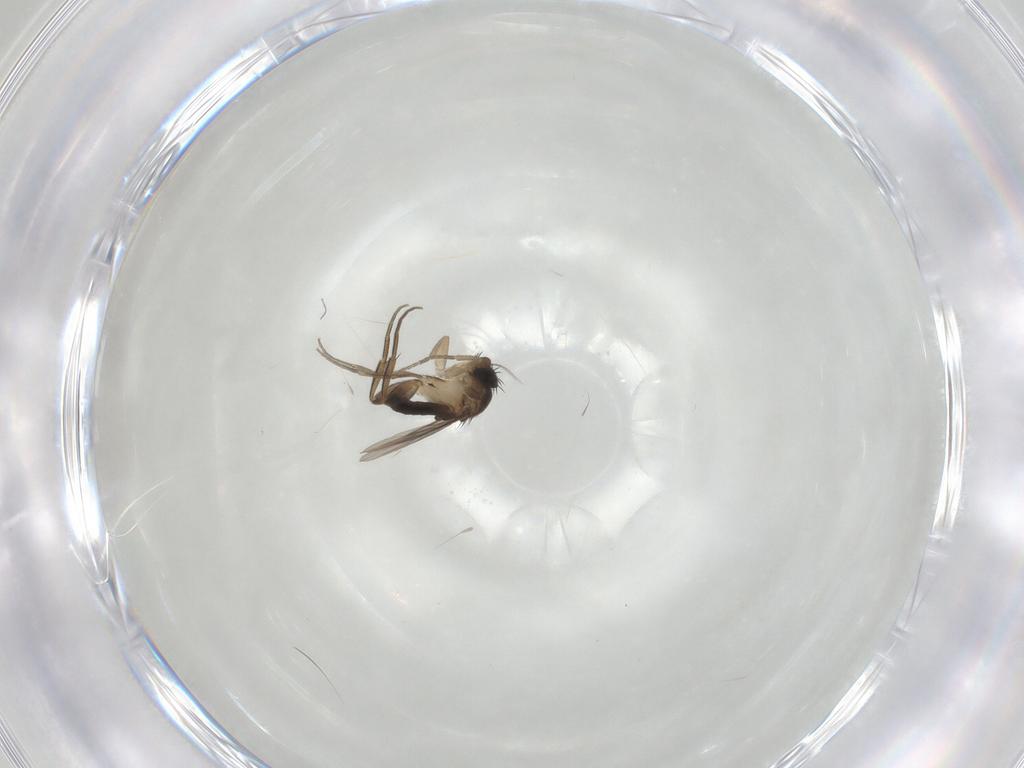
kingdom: Animalia
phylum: Arthropoda
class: Insecta
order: Diptera
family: Phoridae
